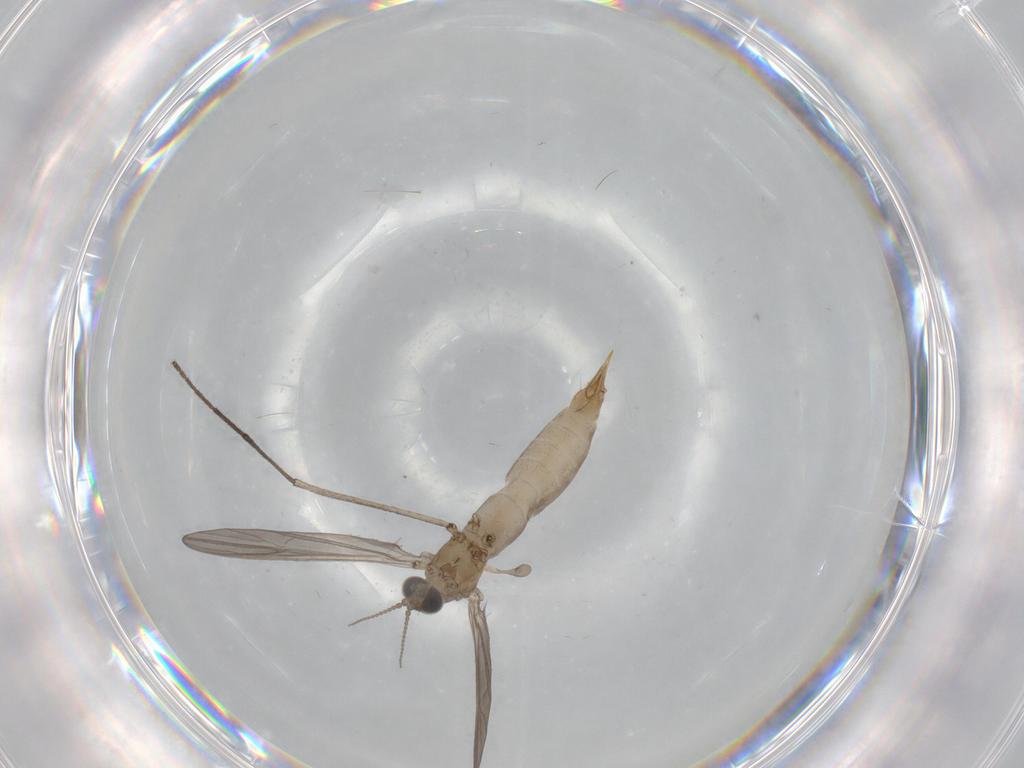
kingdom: Animalia
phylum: Arthropoda
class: Insecta
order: Diptera
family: Limoniidae
